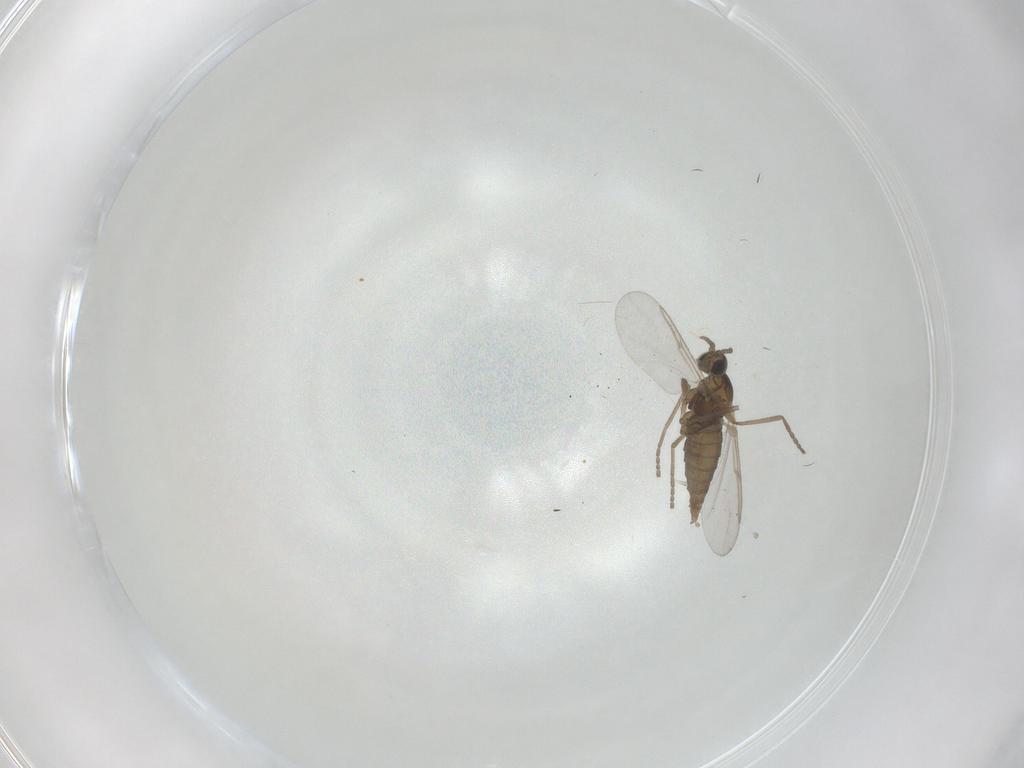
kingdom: Animalia
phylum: Arthropoda
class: Insecta
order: Diptera
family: Cecidomyiidae
